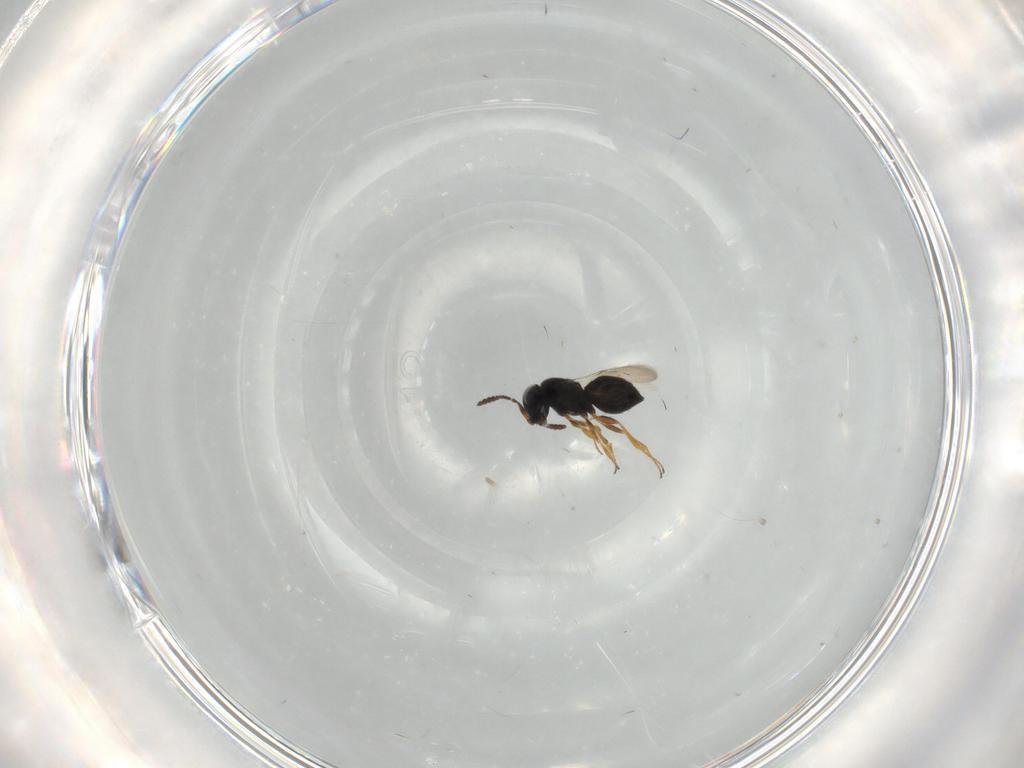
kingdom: Animalia
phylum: Arthropoda
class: Insecta
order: Hymenoptera
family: Scelionidae
